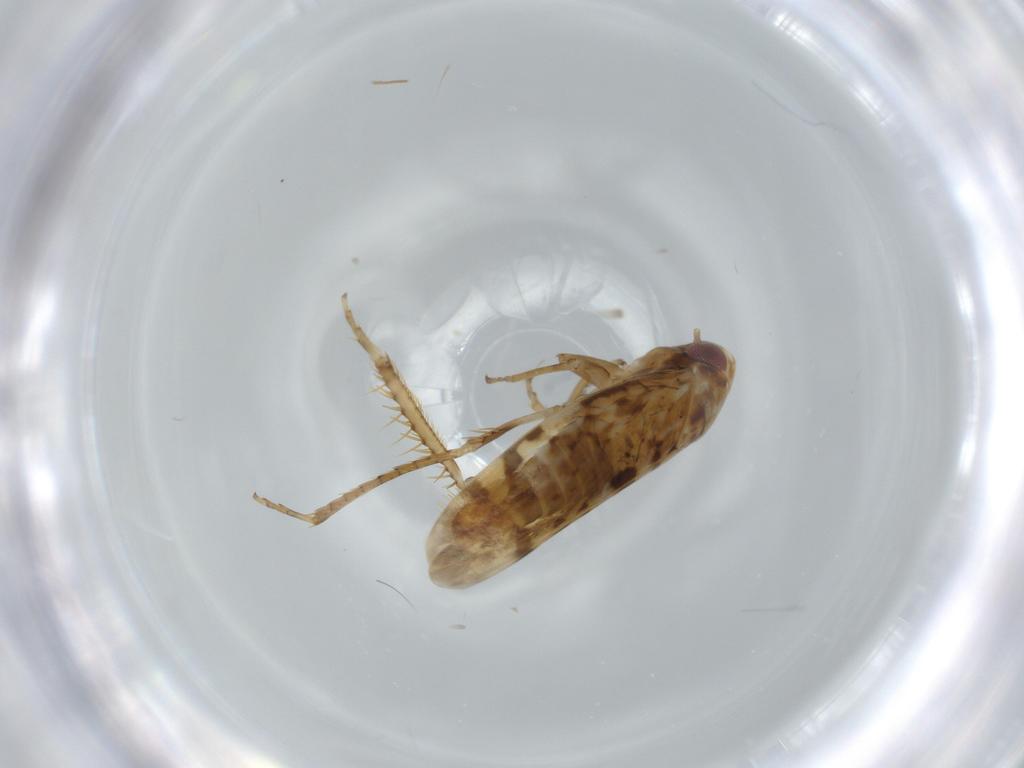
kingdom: Animalia
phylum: Arthropoda
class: Insecta
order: Hemiptera
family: Cicadellidae
